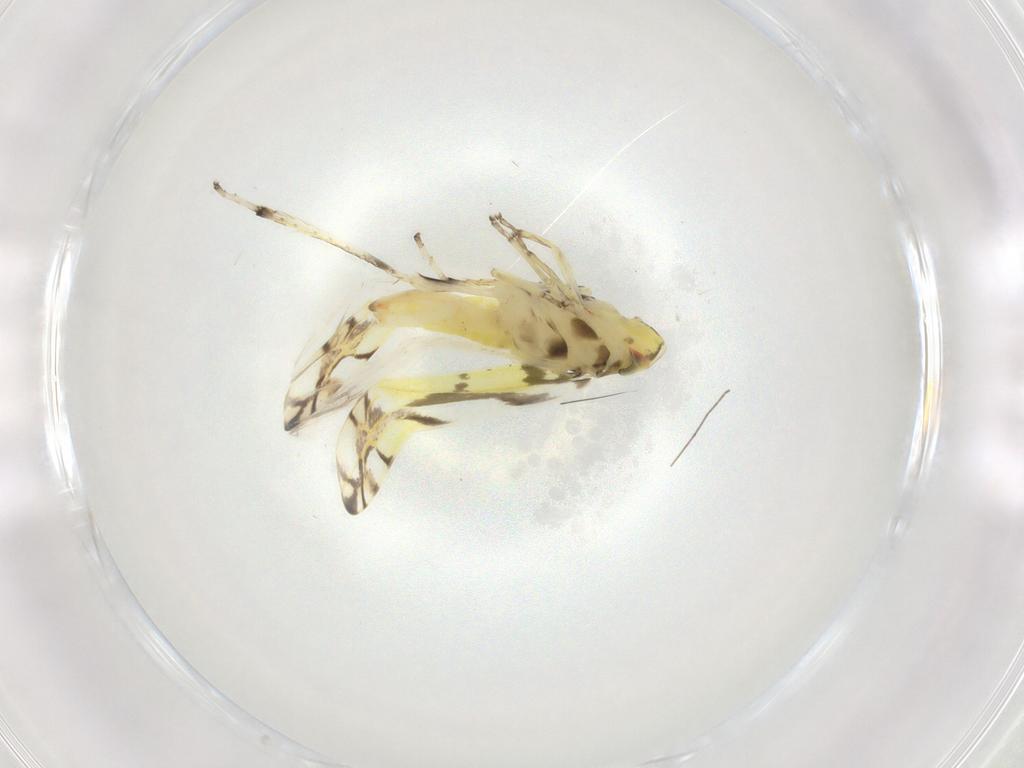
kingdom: Animalia
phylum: Arthropoda
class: Insecta
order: Hemiptera
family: Cicadellidae
